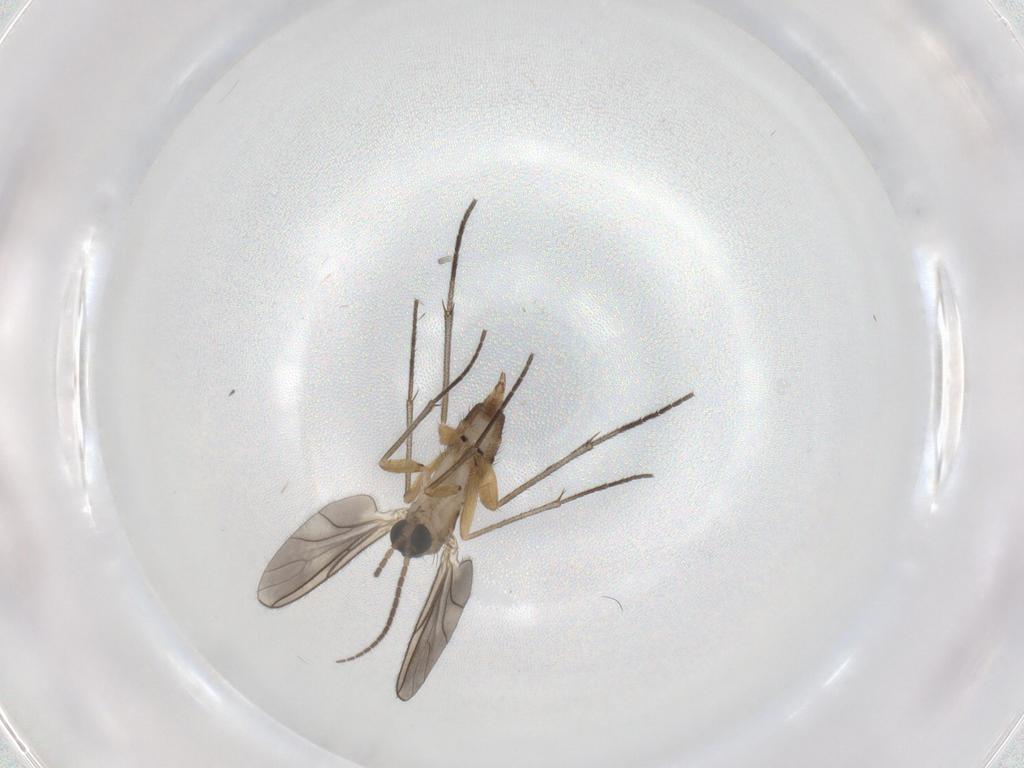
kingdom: Animalia
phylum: Arthropoda
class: Insecta
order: Diptera
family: Sciaridae
